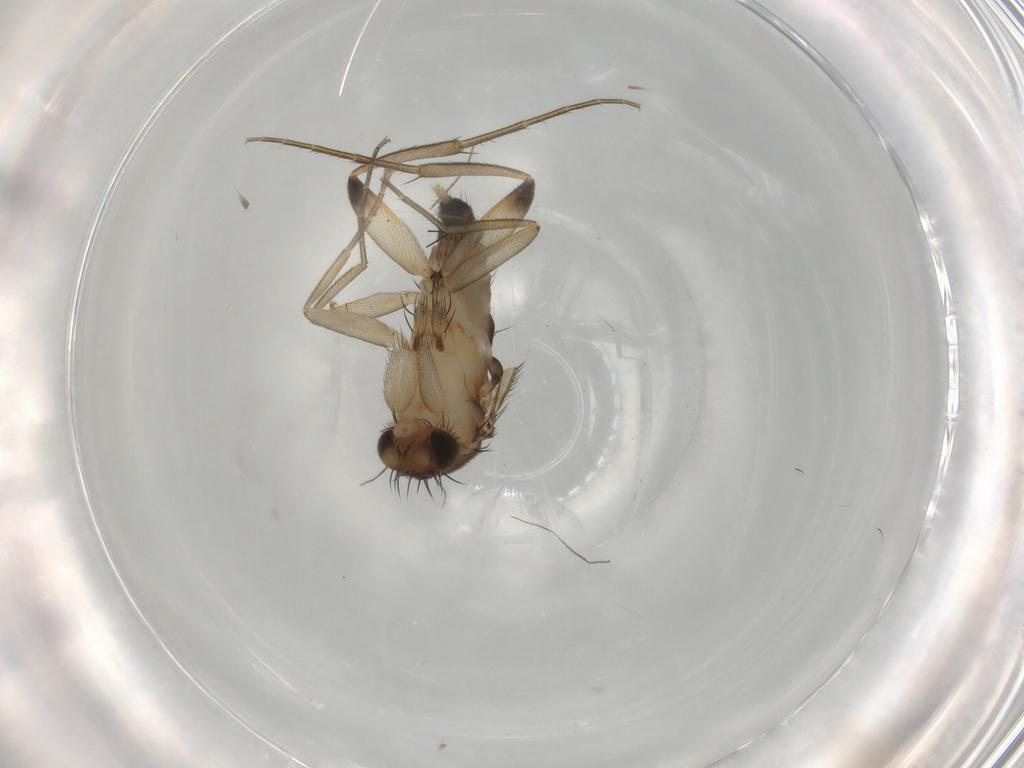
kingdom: Animalia
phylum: Arthropoda
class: Insecta
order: Diptera
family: Phoridae
